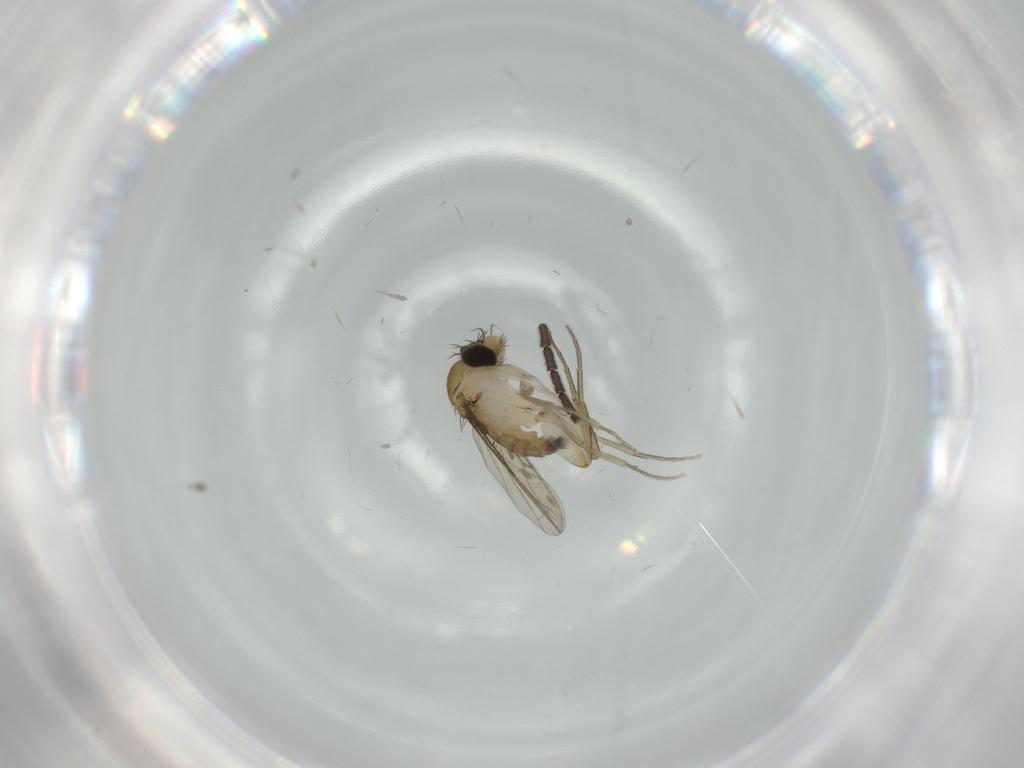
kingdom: Animalia
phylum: Arthropoda
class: Insecta
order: Diptera
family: Phoridae
